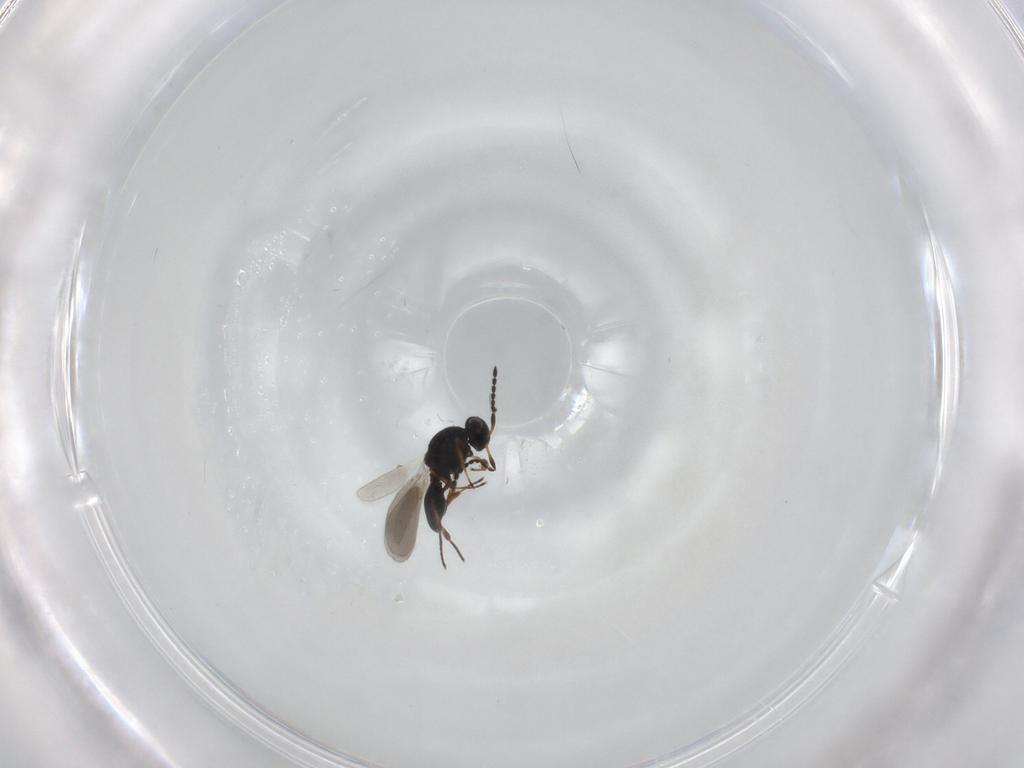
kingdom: Animalia
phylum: Arthropoda
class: Insecta
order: Hymenoptera
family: Platygastridae
